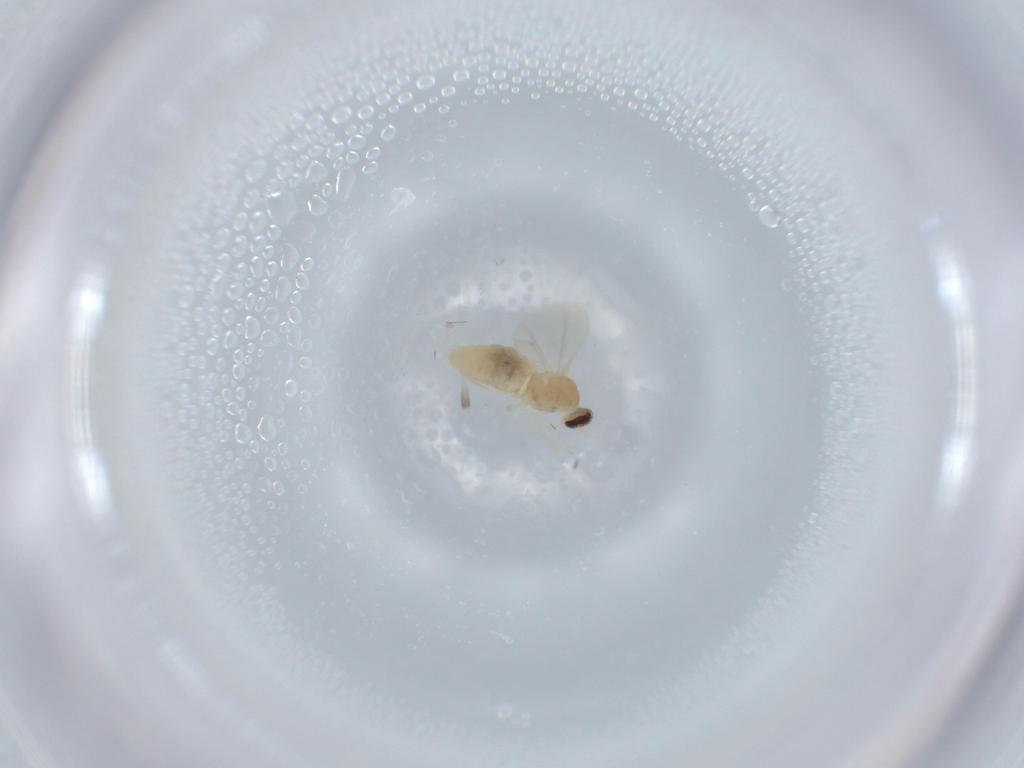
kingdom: Animalia
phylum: Arthropoda
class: Insecta
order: Diptera
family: Cecidomyiidae
